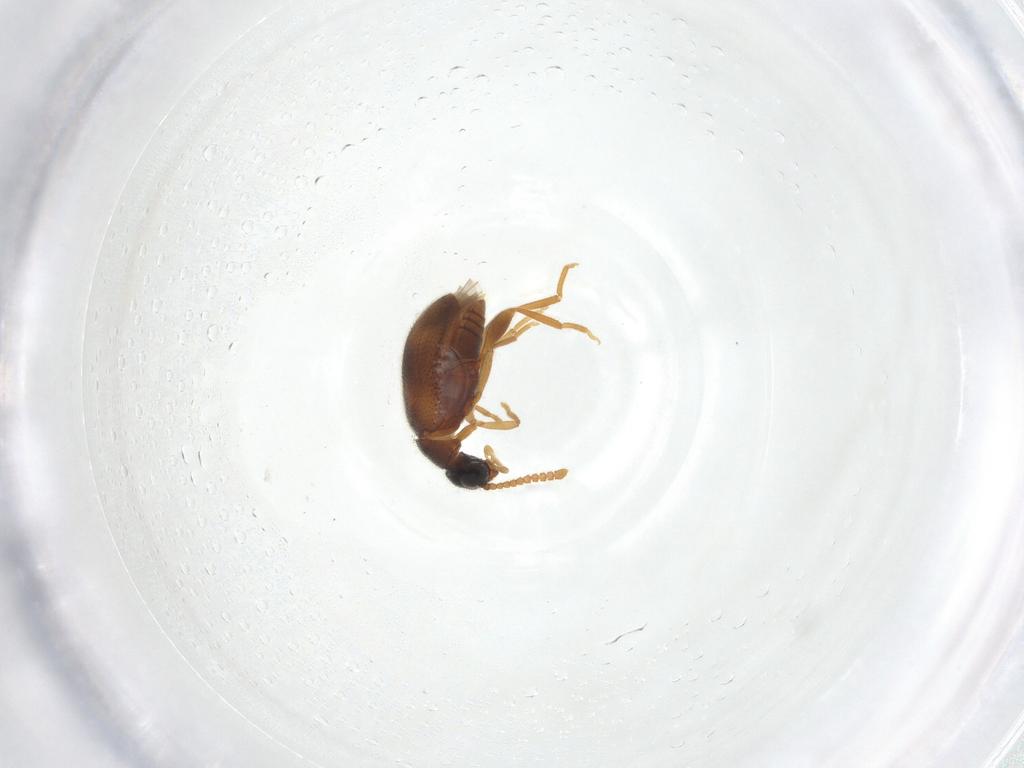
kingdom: Animalia
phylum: Arthropoda
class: Insecta
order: Coleoptera
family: Aderidae
